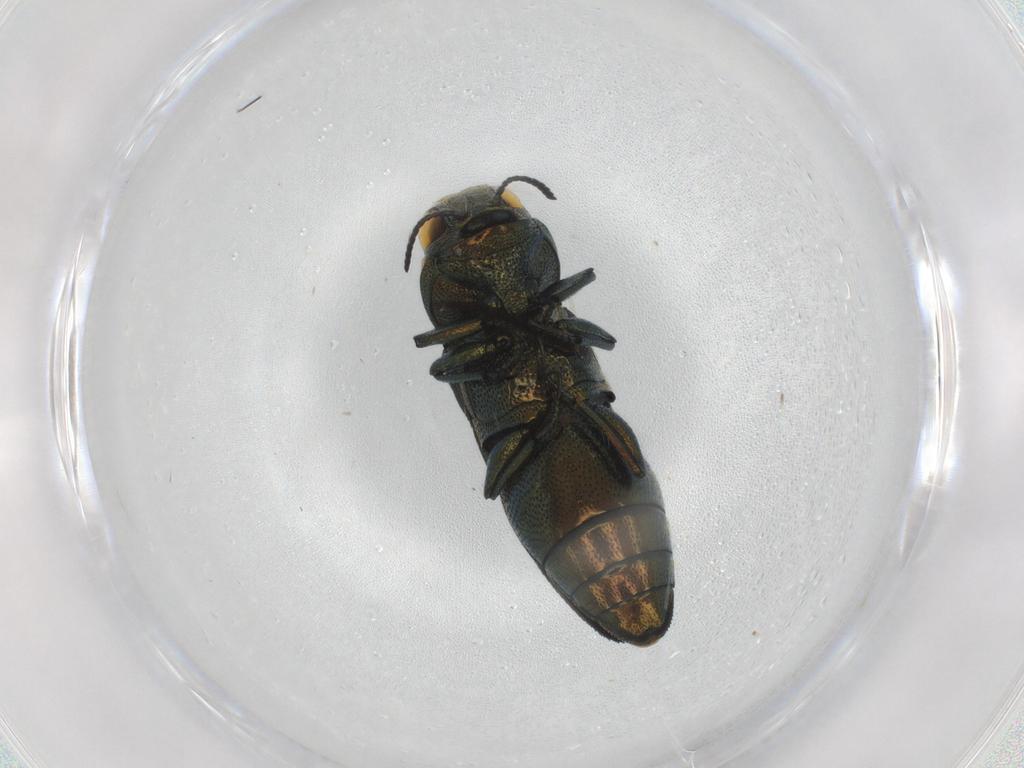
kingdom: Animalia
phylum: Arthropoda
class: Insecta
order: Coleoptera
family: Buprestidae
